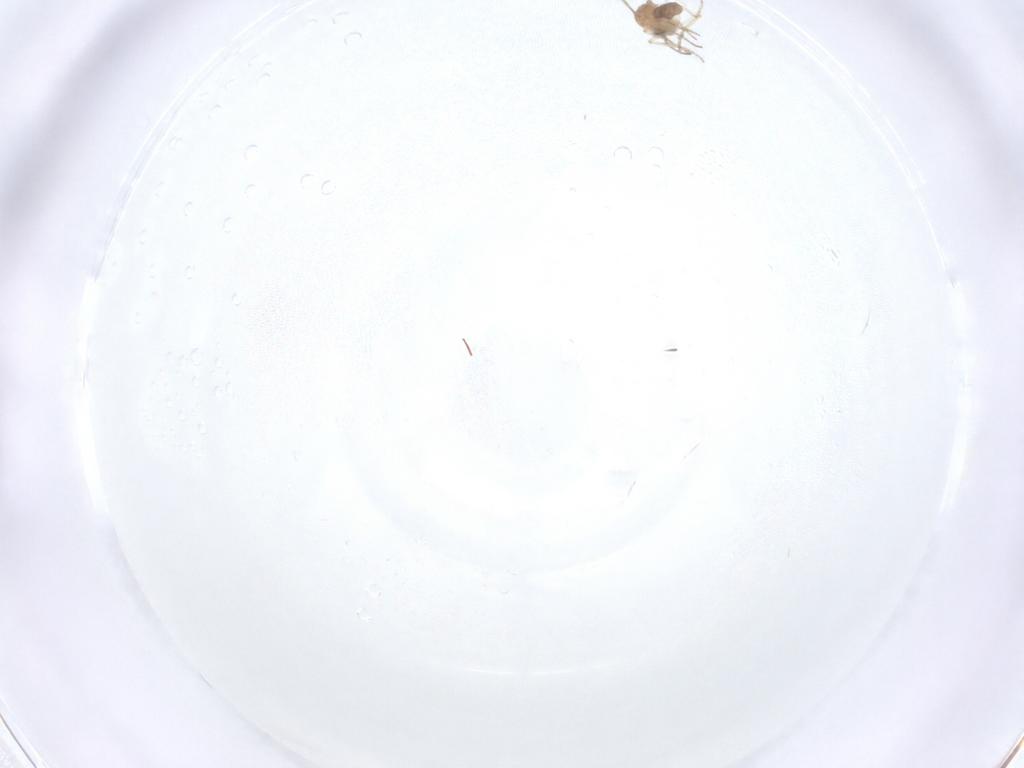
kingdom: Animalia
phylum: Arthropoda
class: Insecta
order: Diptera
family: Ceratopogonidae
